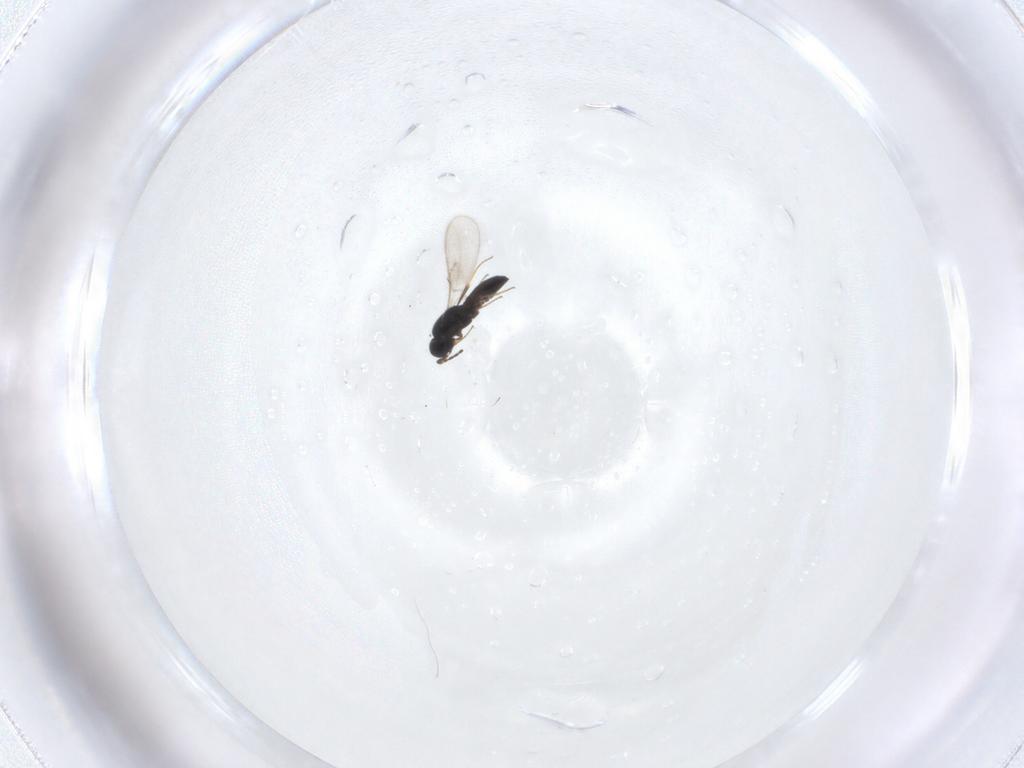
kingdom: Animalia
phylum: Arthropoda
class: Insecta
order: Hymenoptera
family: Scelionidae
